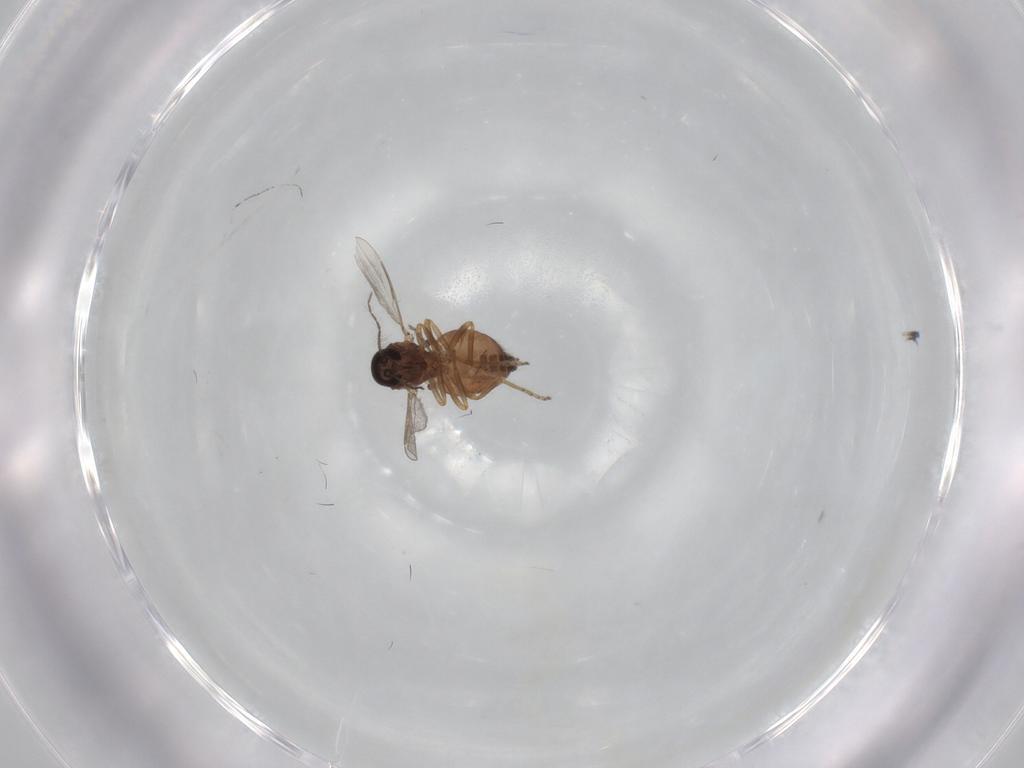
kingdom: Animalia
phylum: Arthropoda
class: Insecta
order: Diptera
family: Ceratopogonidae
